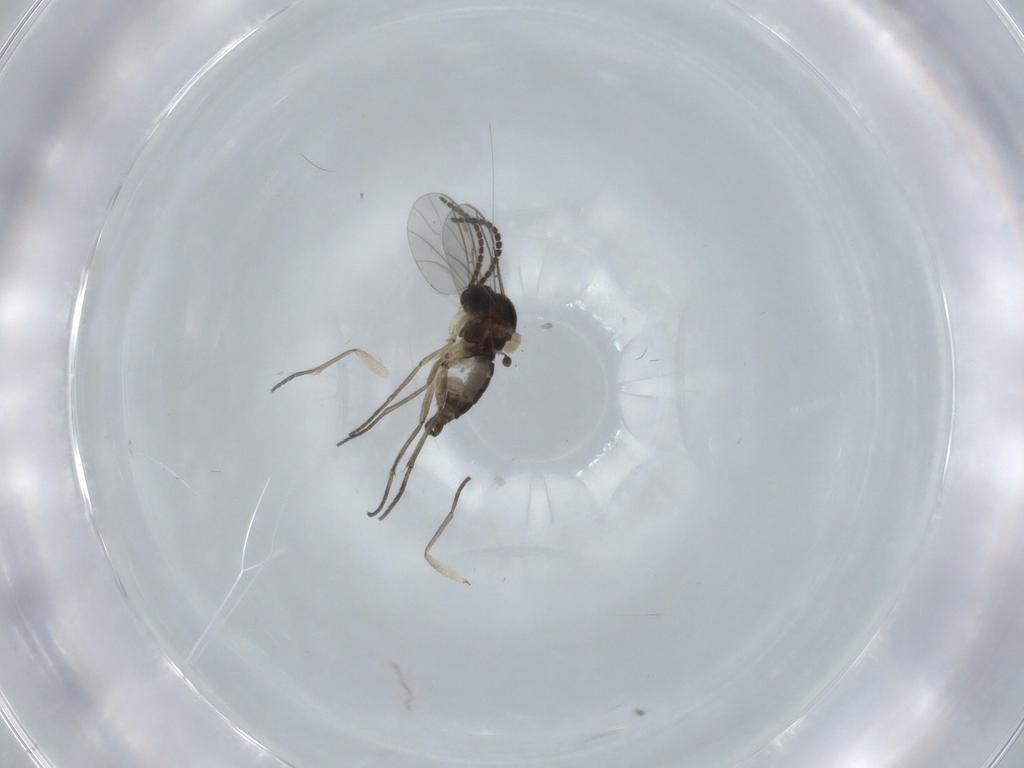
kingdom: Animalia
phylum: Arthropoda
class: Insecta
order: Diptera
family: Sciaridae
